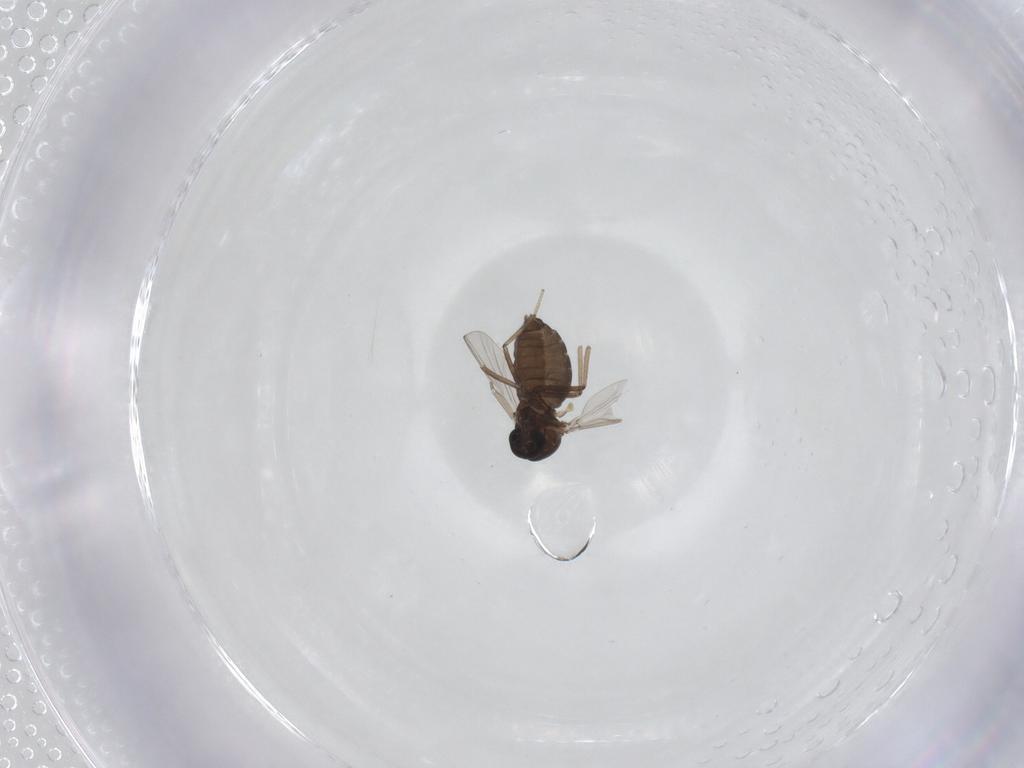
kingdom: Animalia
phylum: Arthropoda
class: Insecta
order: Diptera
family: Ceratopogonidae
